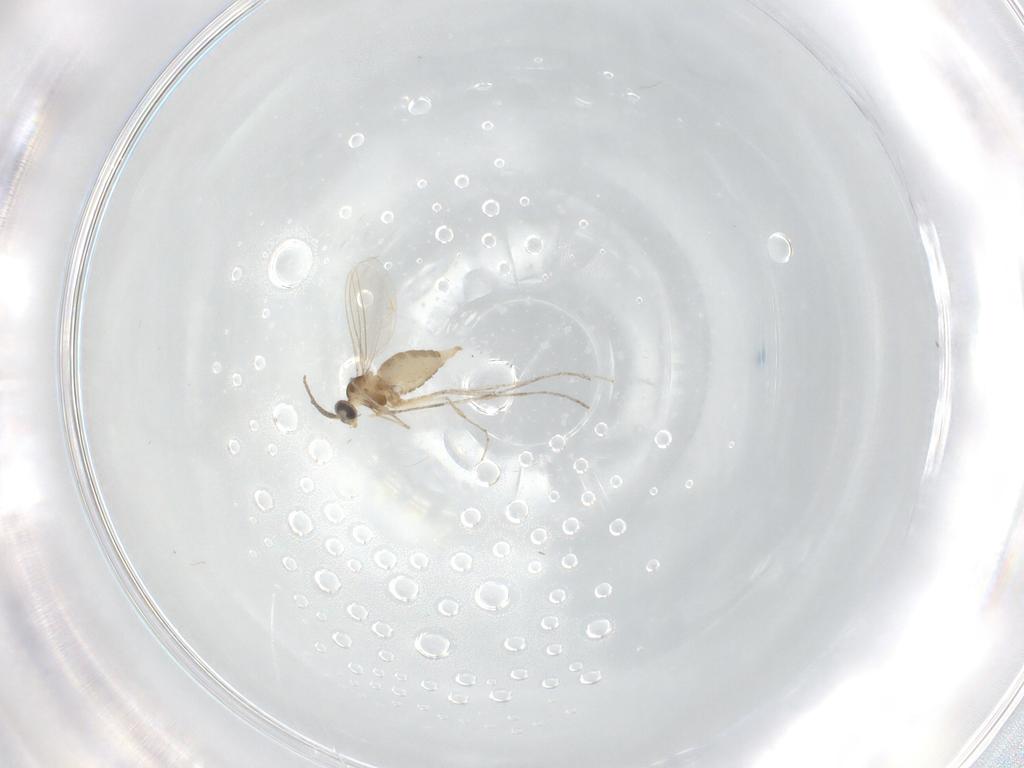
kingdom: Animalia
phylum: Arthropoda
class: Insecta
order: Diptera
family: Cecidomyiidae
